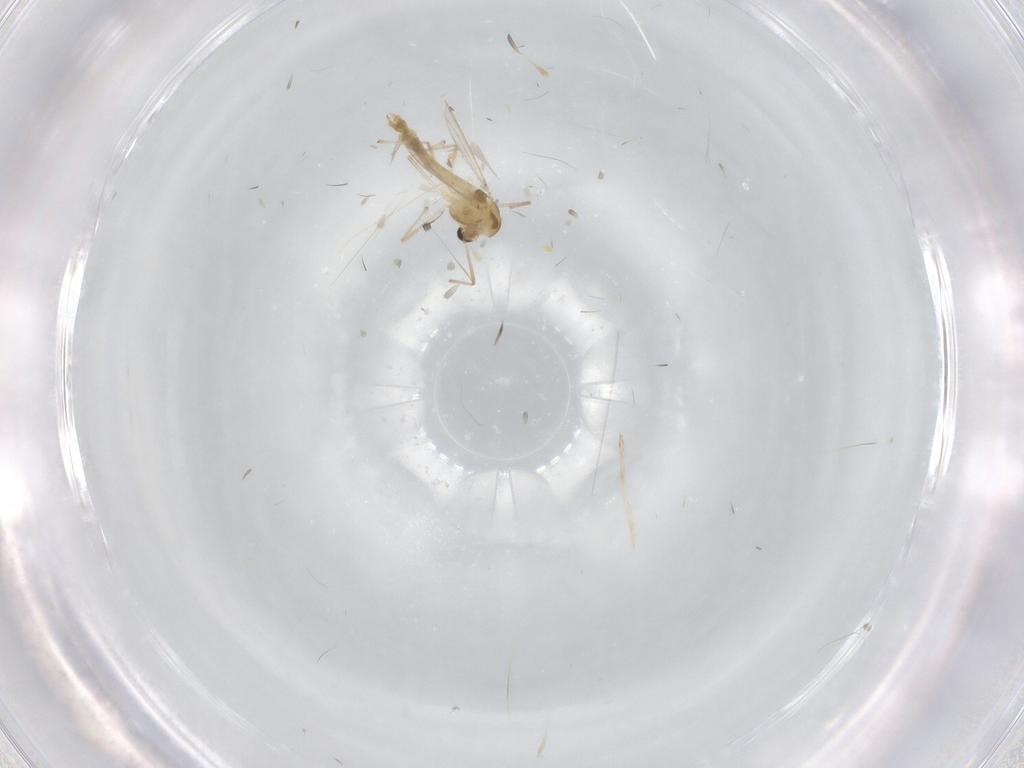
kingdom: Animalia
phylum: Arthropoda
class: Insecta
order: Diptera
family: Chironomidae
